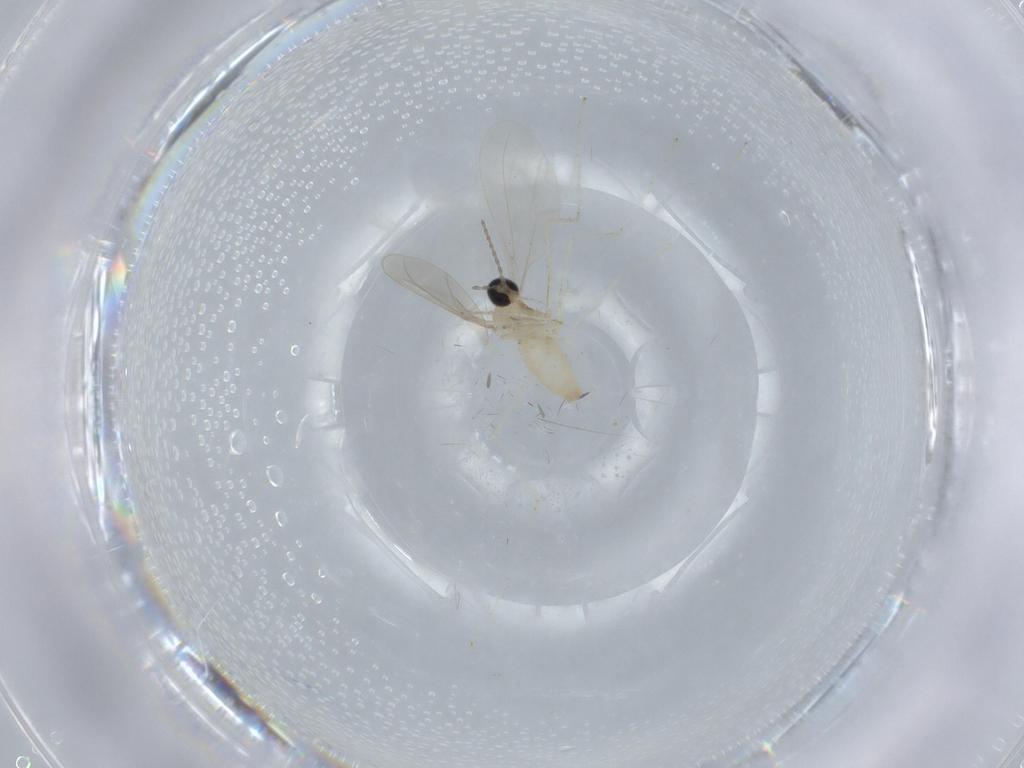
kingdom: Animalia
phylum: Arthropoda
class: Insecta
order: Diptera
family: Cecidomyiidae
